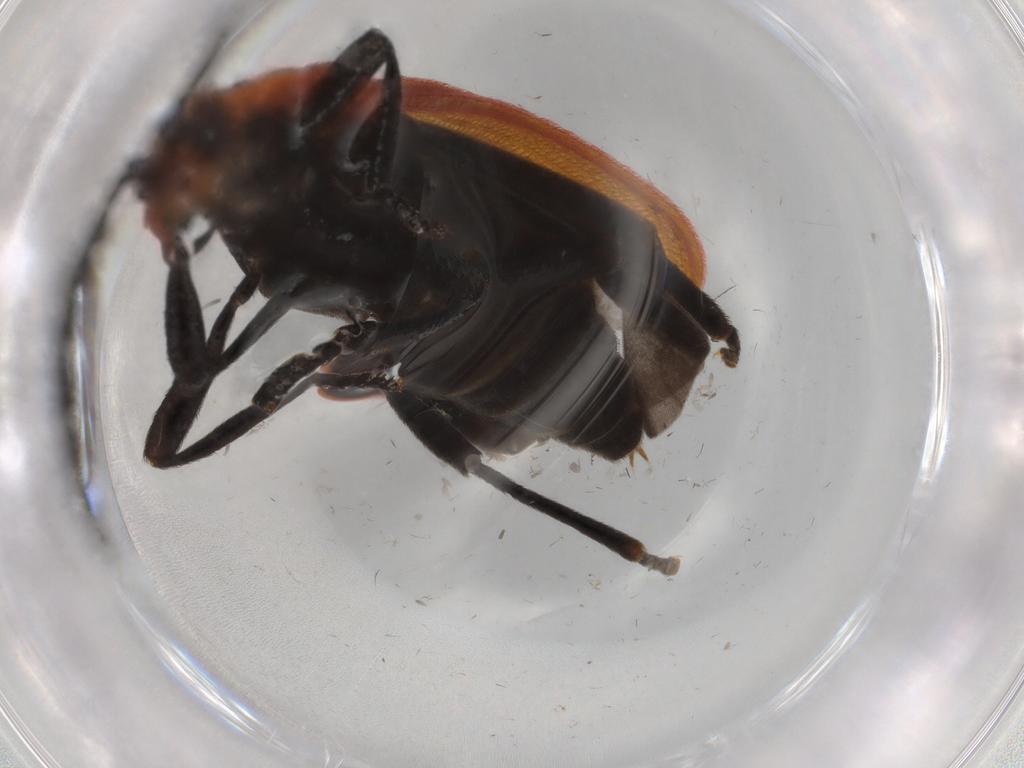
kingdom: Animalia
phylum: Arthropoda
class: Insecta
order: Coleoptera
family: Lycidae
